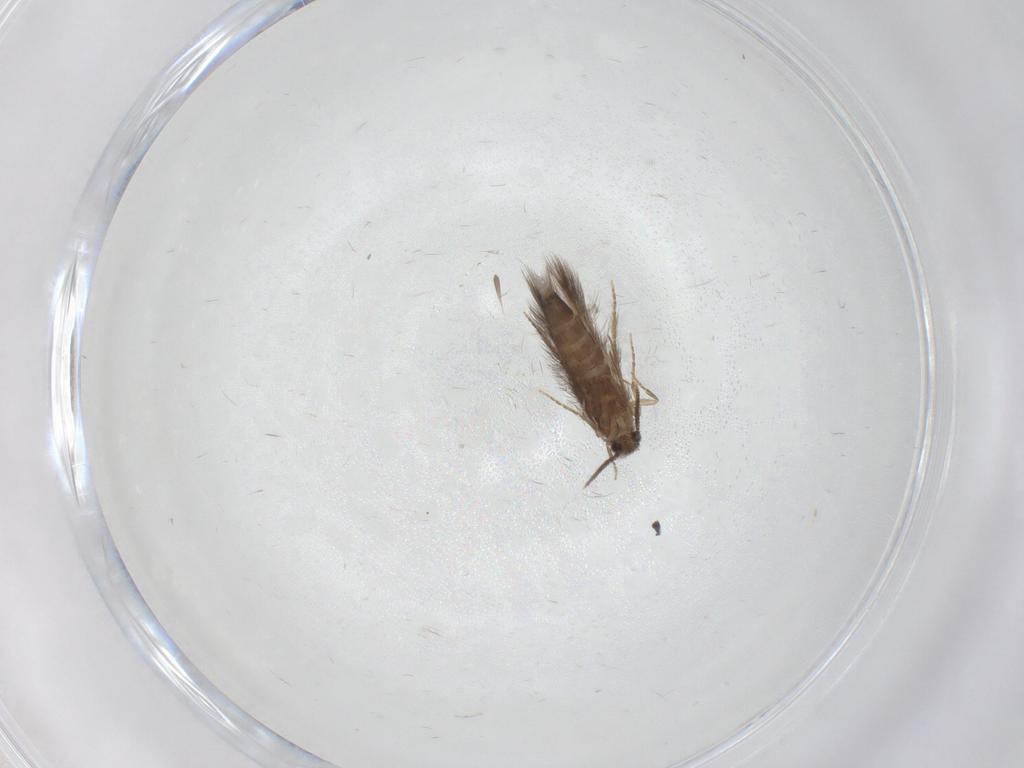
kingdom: Animalia
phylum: Arthropoda
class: Insecta
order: Trichoptera
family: Hydroptilidae
